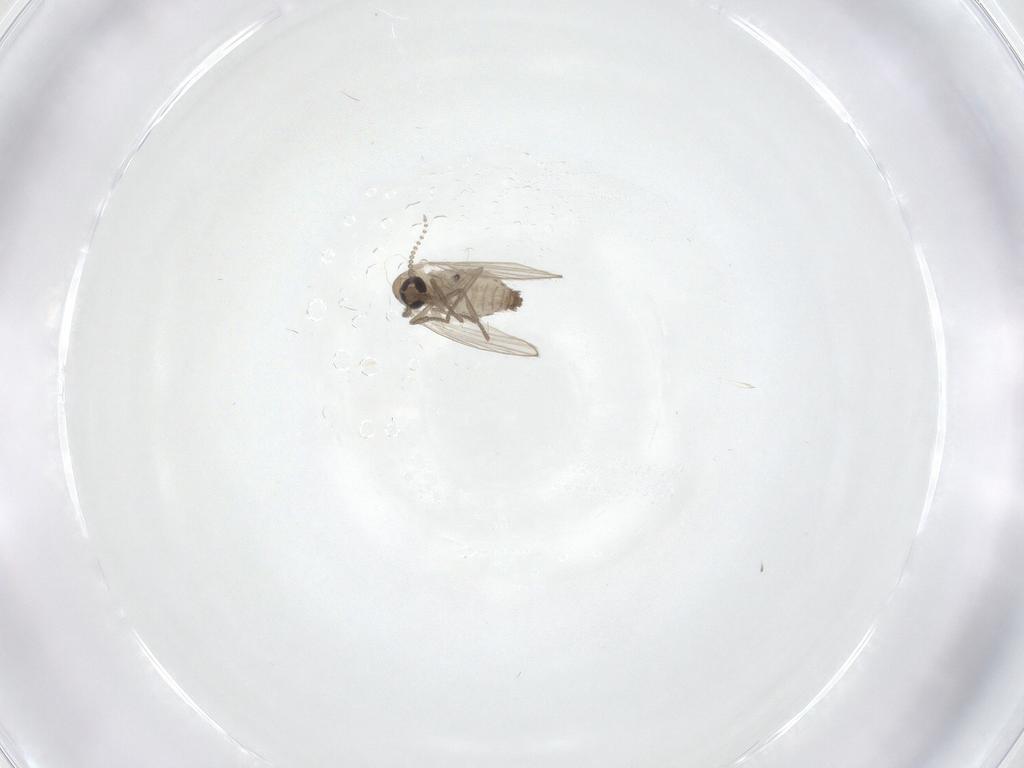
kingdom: Animalia
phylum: Arthropoda
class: Insecta
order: Diptera
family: Psychodidae
